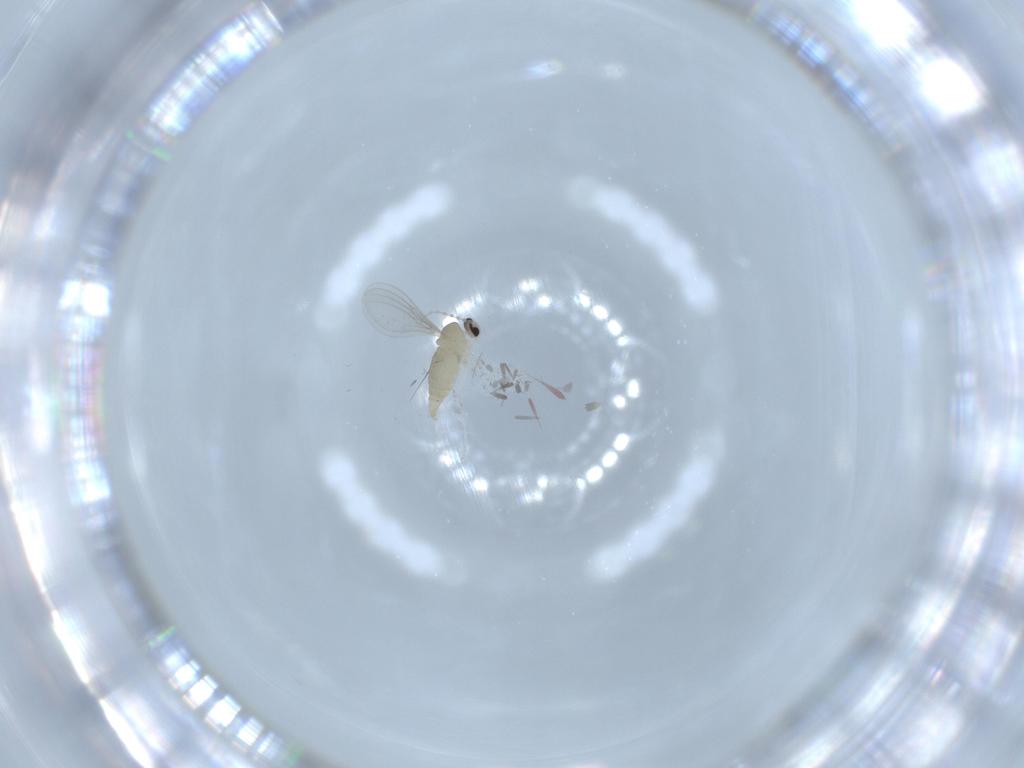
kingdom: Animalia
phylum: Arthropoda
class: Insecta
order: Diptera
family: Cecidomyiidae
